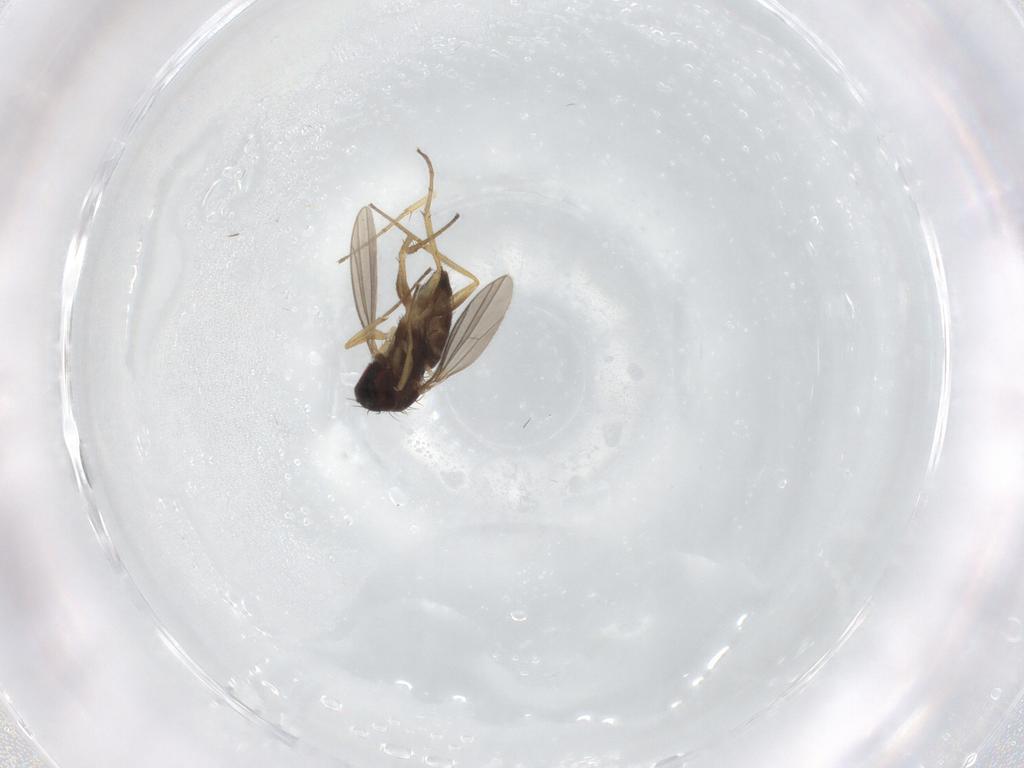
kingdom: Animalia
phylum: Arthropoda
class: Insecta
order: Diptera
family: Dolichopodidae
